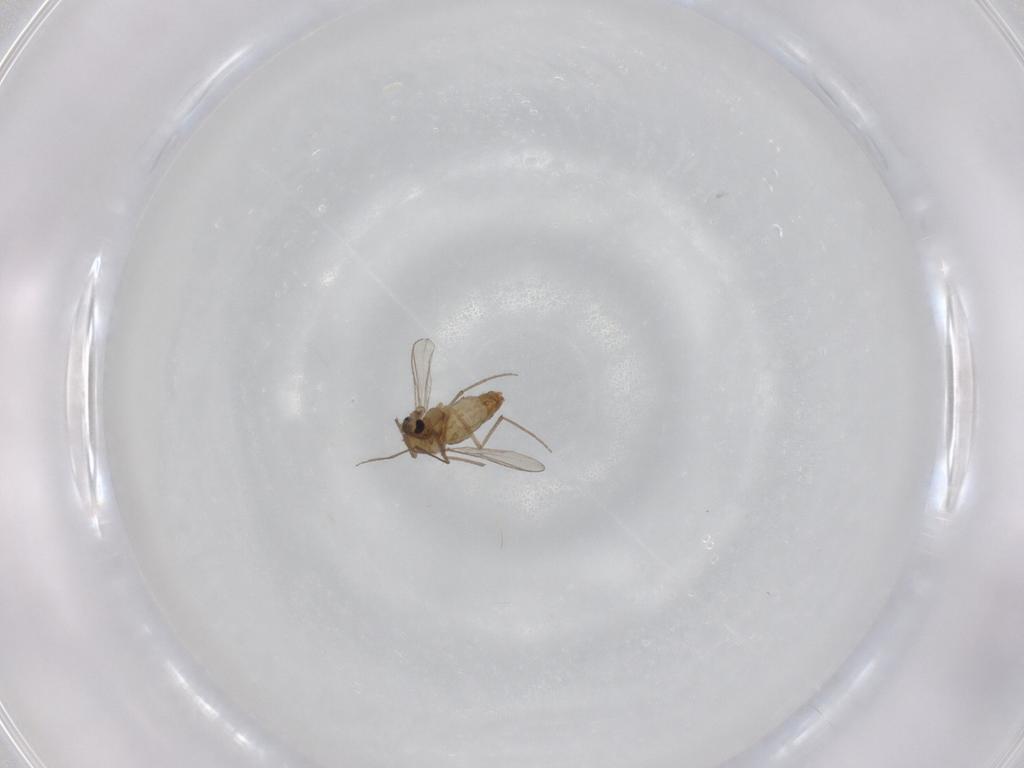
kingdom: Animalia
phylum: Arthropoda
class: Insecta
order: Diptera
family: Chironomidae
